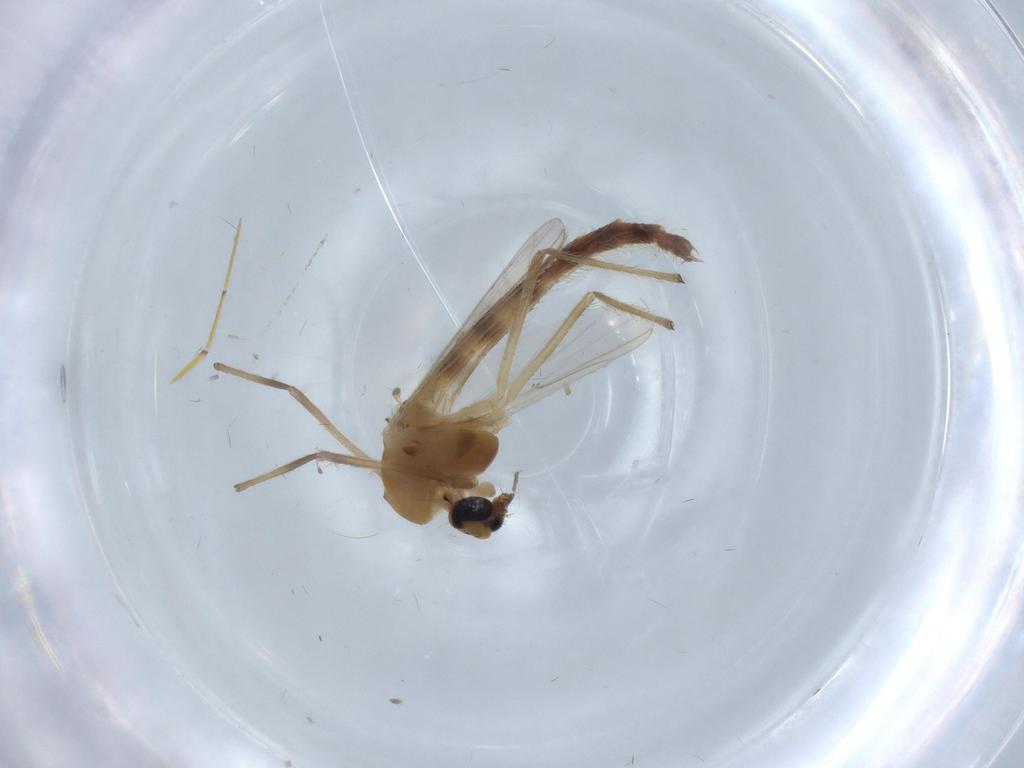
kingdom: Animalia
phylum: Arthropoda
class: Insecta
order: Diptera
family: Chironomidae
